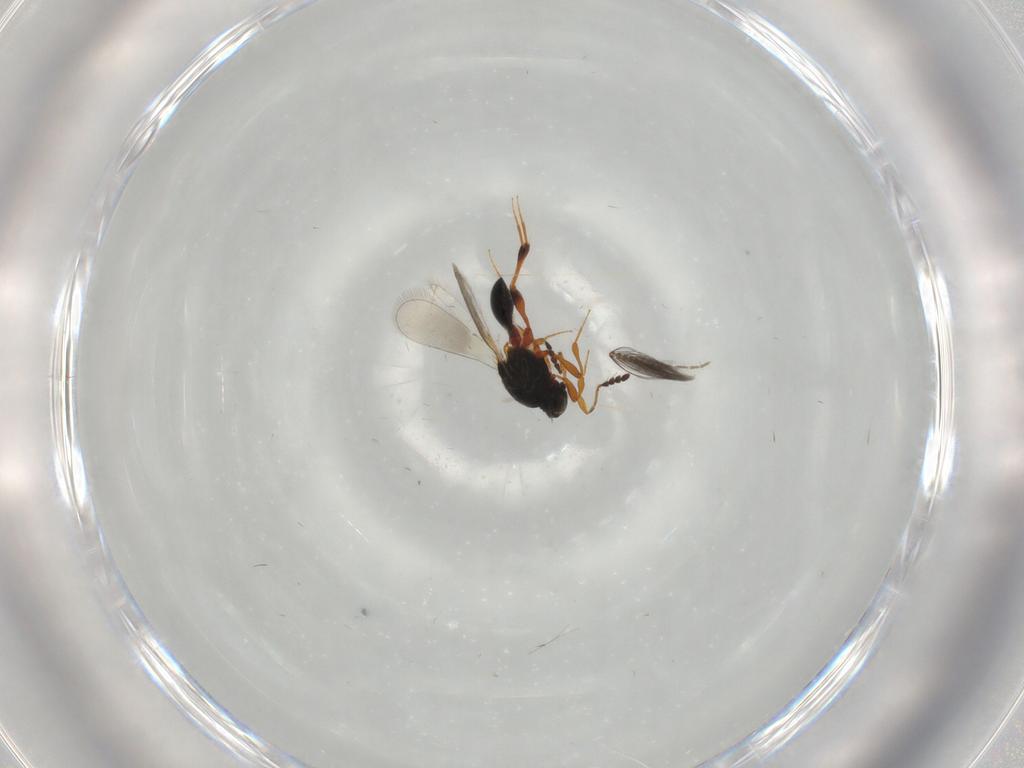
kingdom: Animalia
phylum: Arthropoda
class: Insecta
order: Hymenoptera
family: Platygastridae
